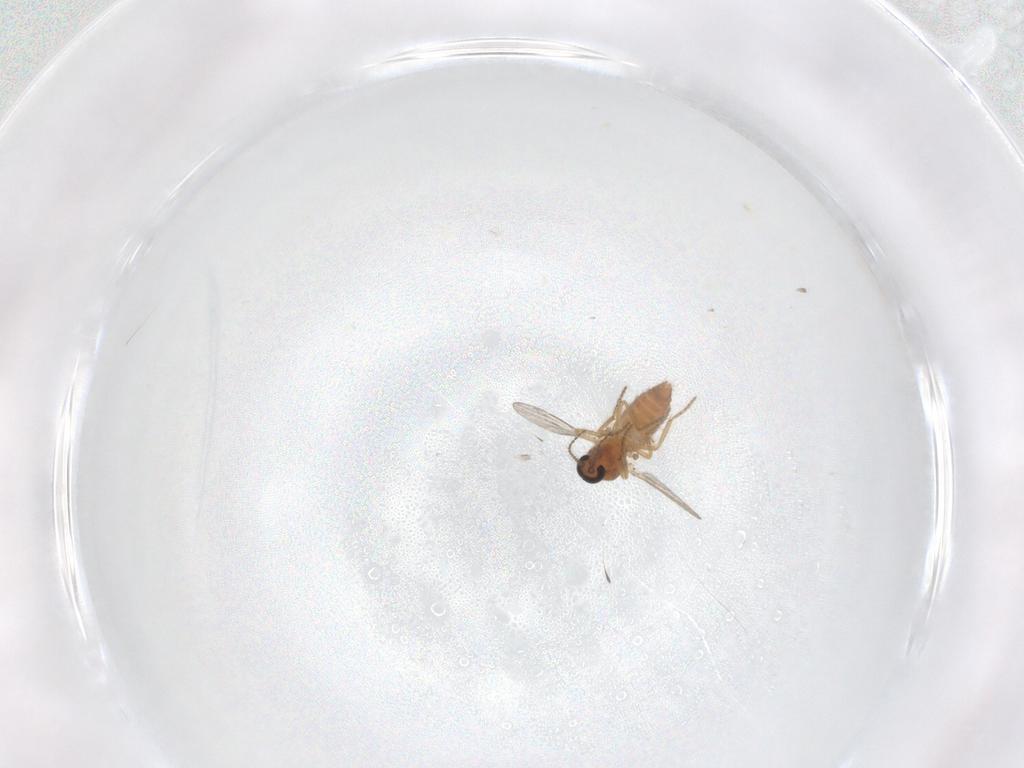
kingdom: Animalia
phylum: Arthropoda
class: Insecta
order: Diptera
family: Ceratopogonidae
